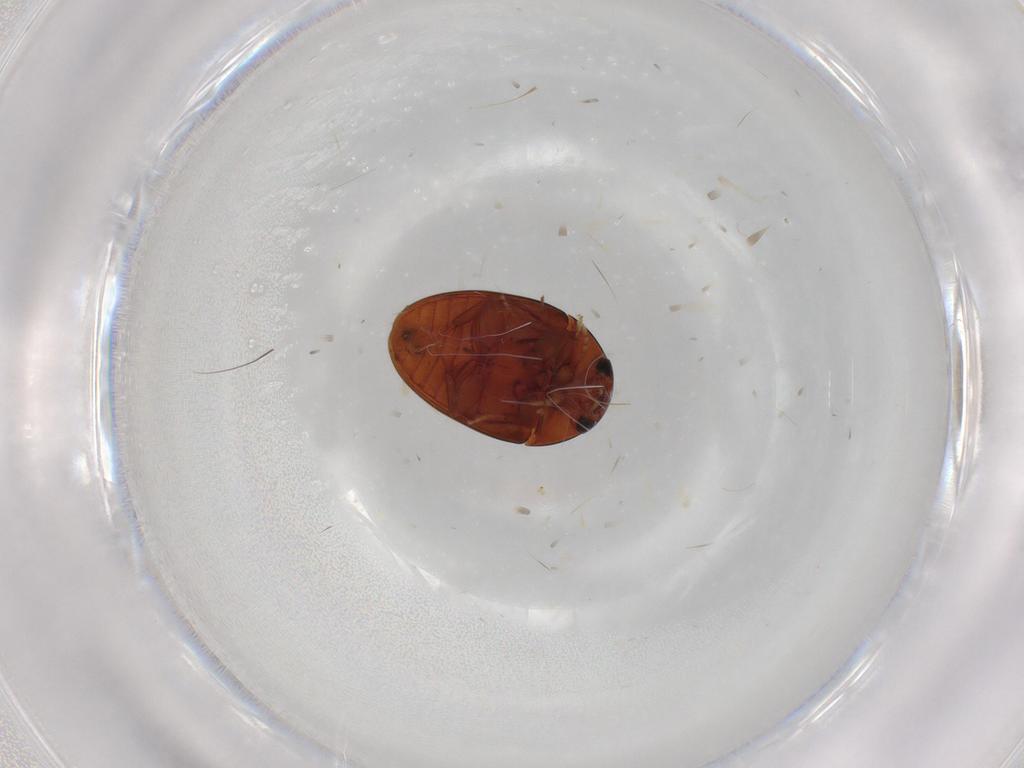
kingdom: Animalia
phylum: Arthropoda
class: Insecta
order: Coleoptera
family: Phalacridae
